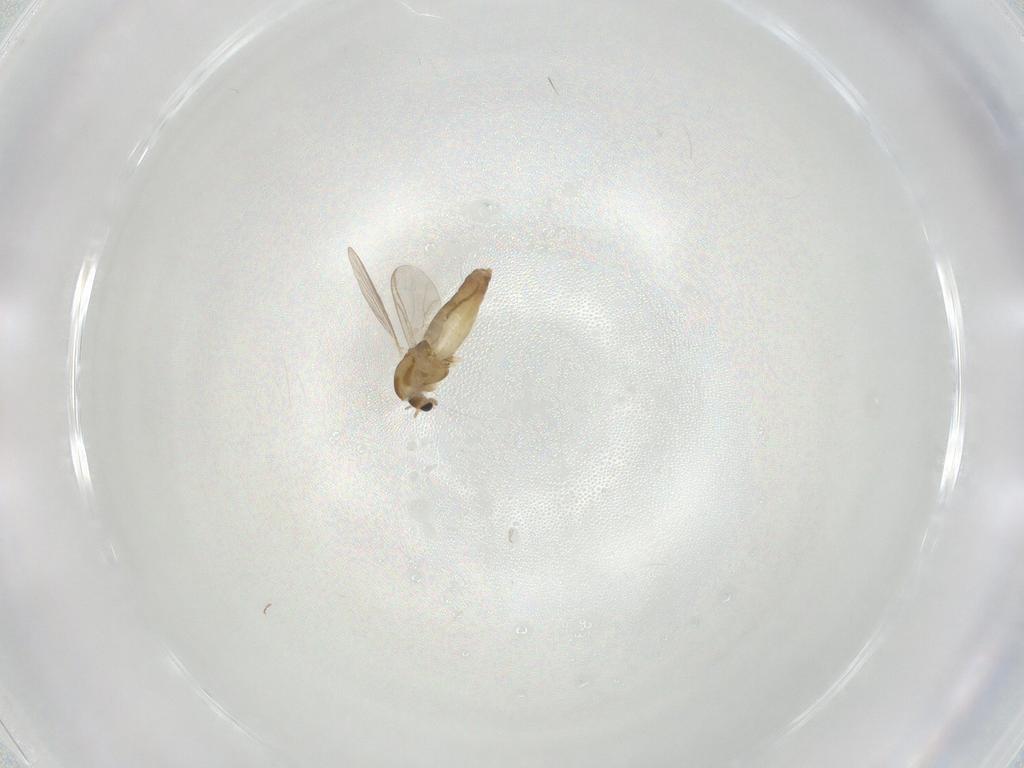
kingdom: Animalia
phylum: Arthropoda
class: Insecta
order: Diptera
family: Chironomidae
